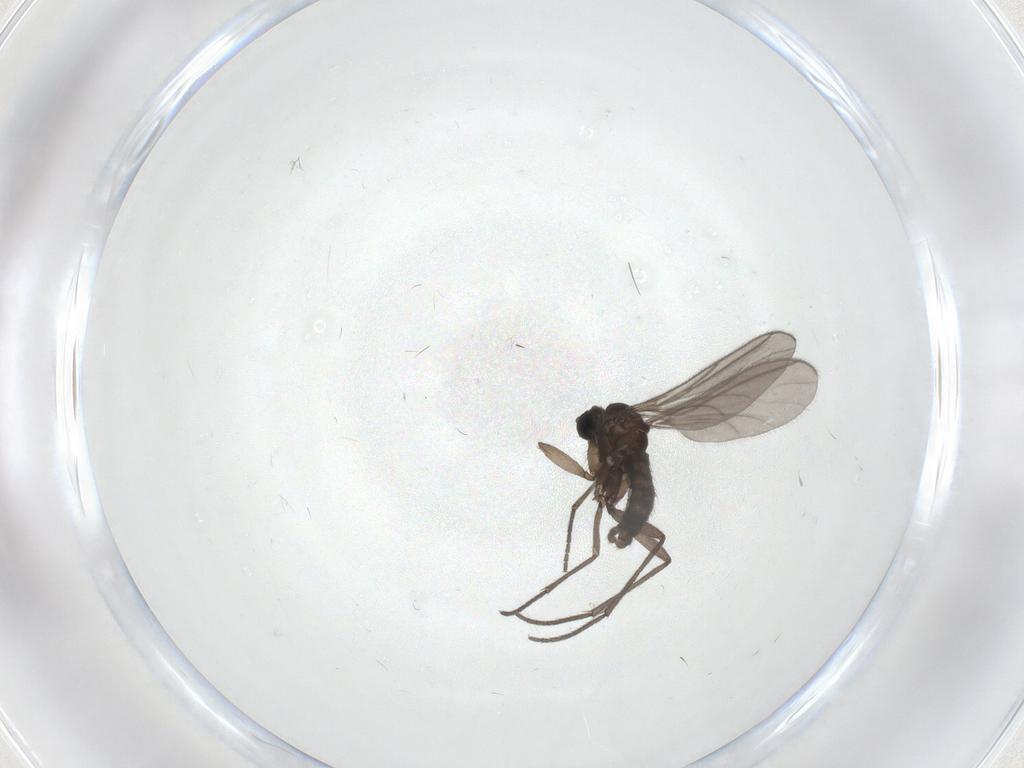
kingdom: Animalia
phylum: Arthropoda
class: Insecta
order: Diptera
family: Sciaridae
